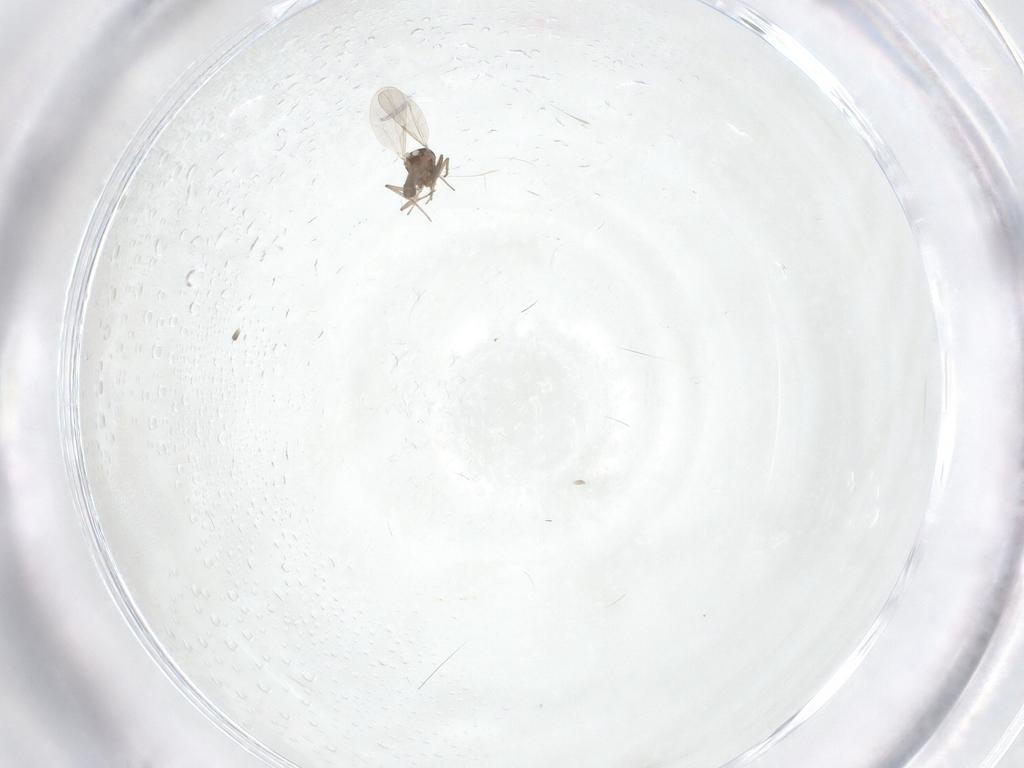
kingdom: Animalia
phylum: Arthropoda
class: Insecta
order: Diptera
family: Ceratopogonidae
